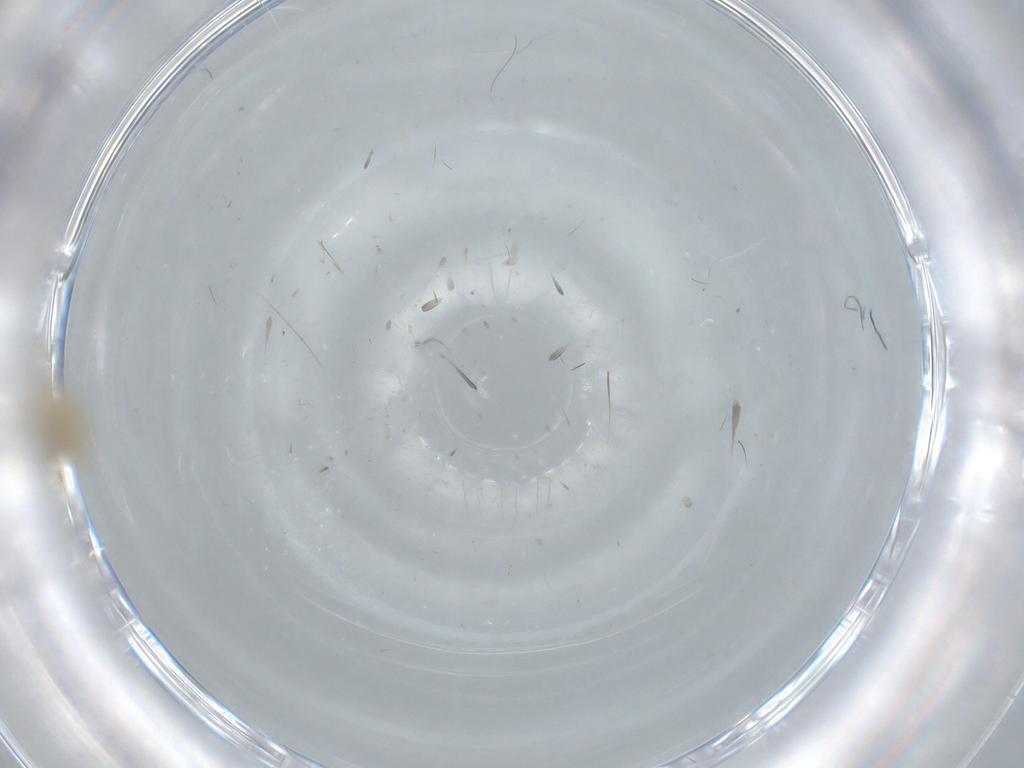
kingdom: Animalia
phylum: Arthropoda
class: Insecta
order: Diptera
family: Cecidomyiidae
